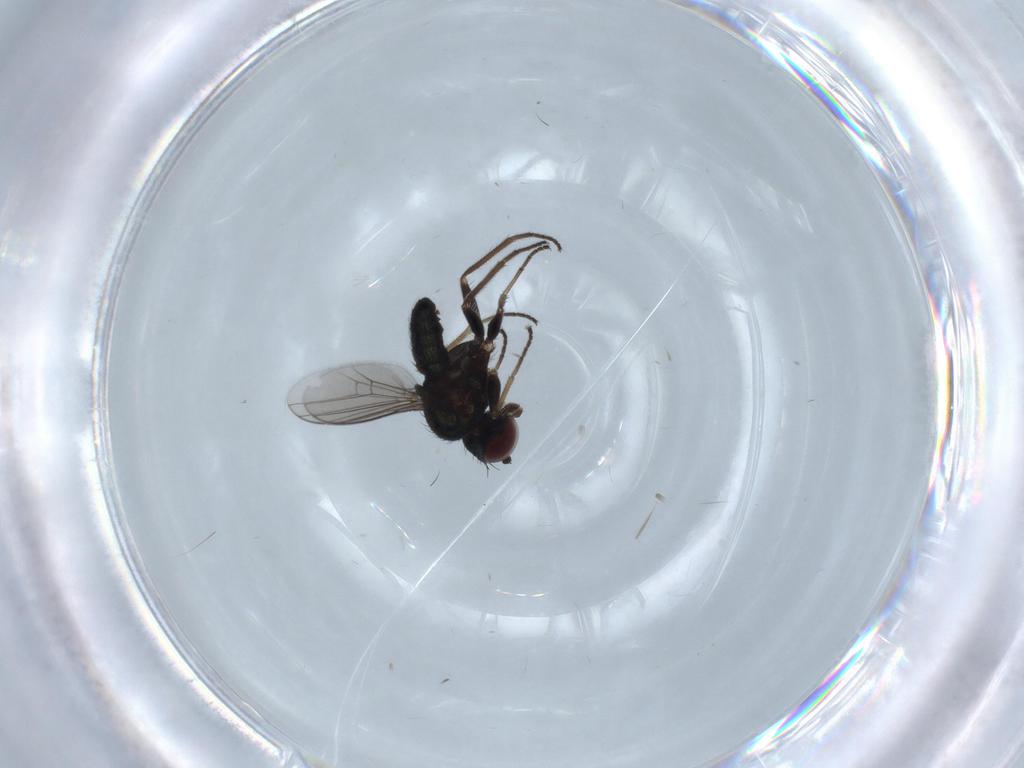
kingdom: Animalia
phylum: Arthropoda
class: Insecta
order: Diptera
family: Dolichopodidae
